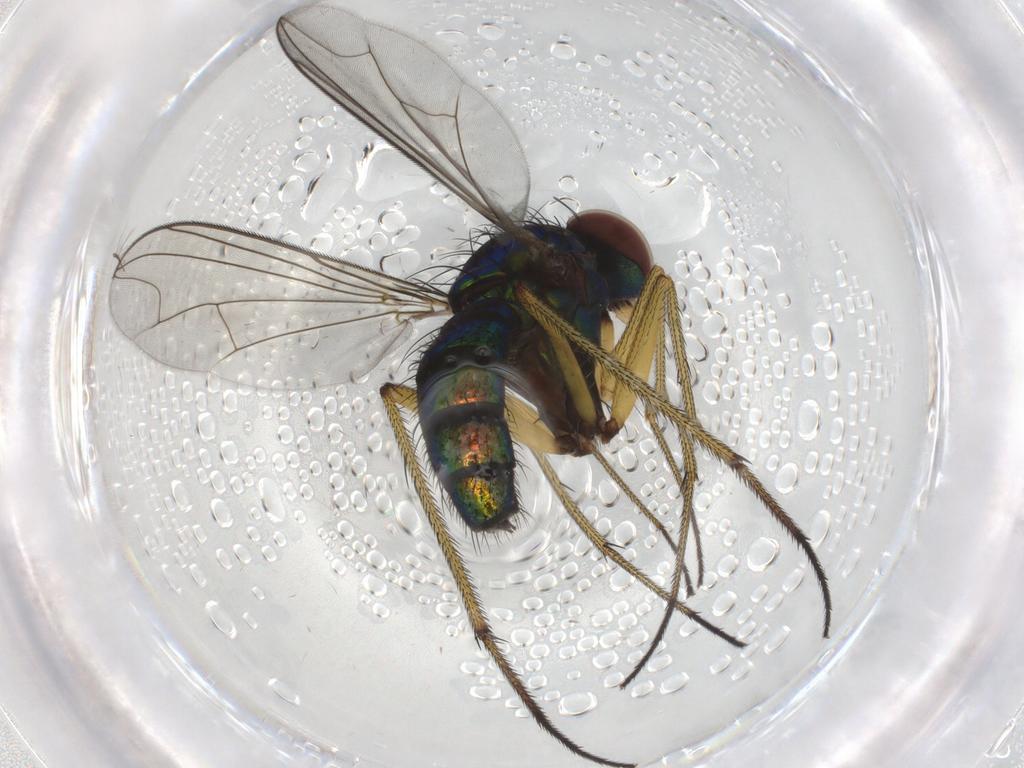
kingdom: Animalia
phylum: Arthropoda
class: Insecta
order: Diptera
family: Dolichopodidae
